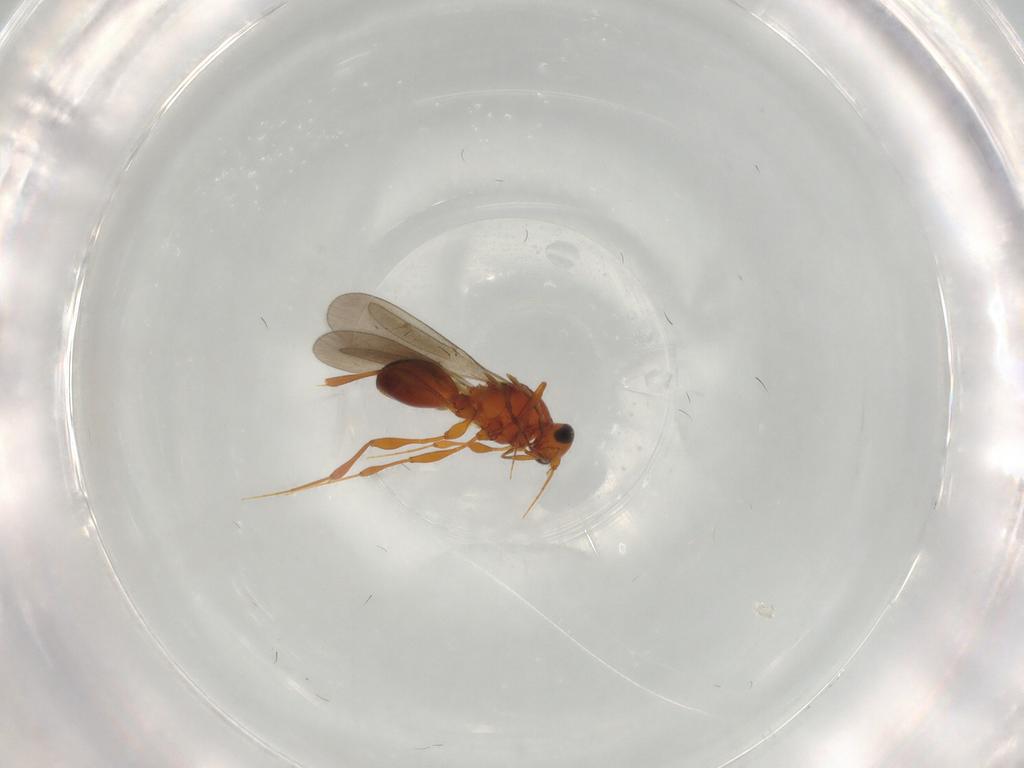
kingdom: Animalia
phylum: Arthropoda
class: Insecta
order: Hymenoptera
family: Platygastridae
